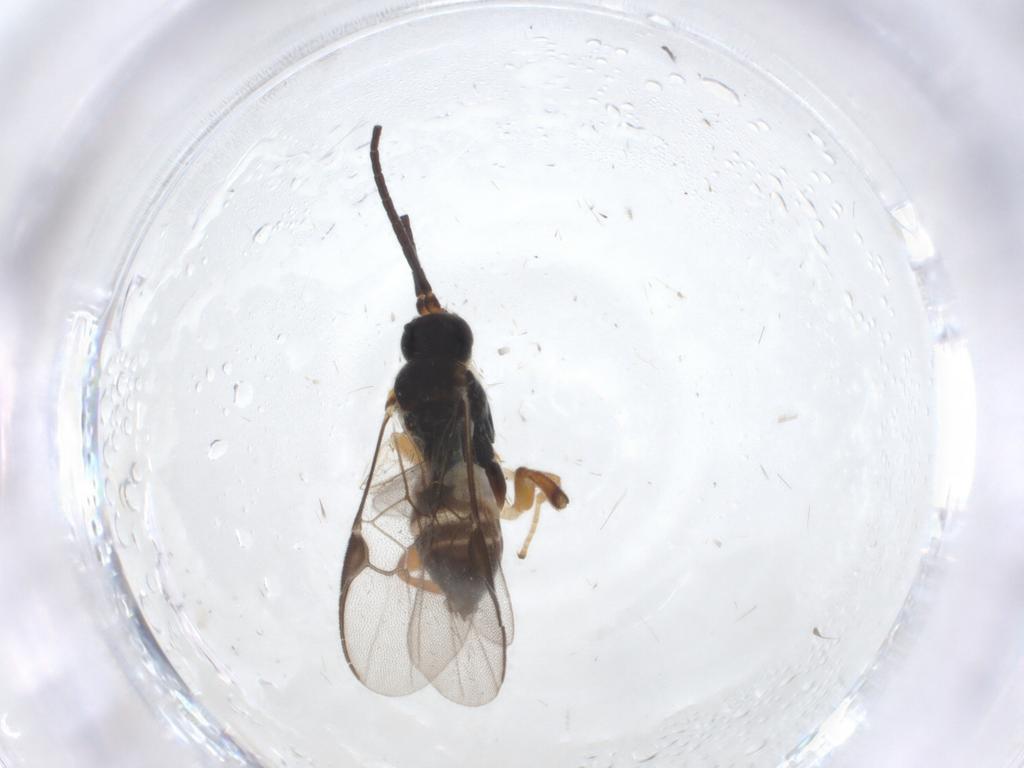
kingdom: Animalia
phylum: Arthropoda
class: Insecta
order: Hymenoptera
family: Braconidae
